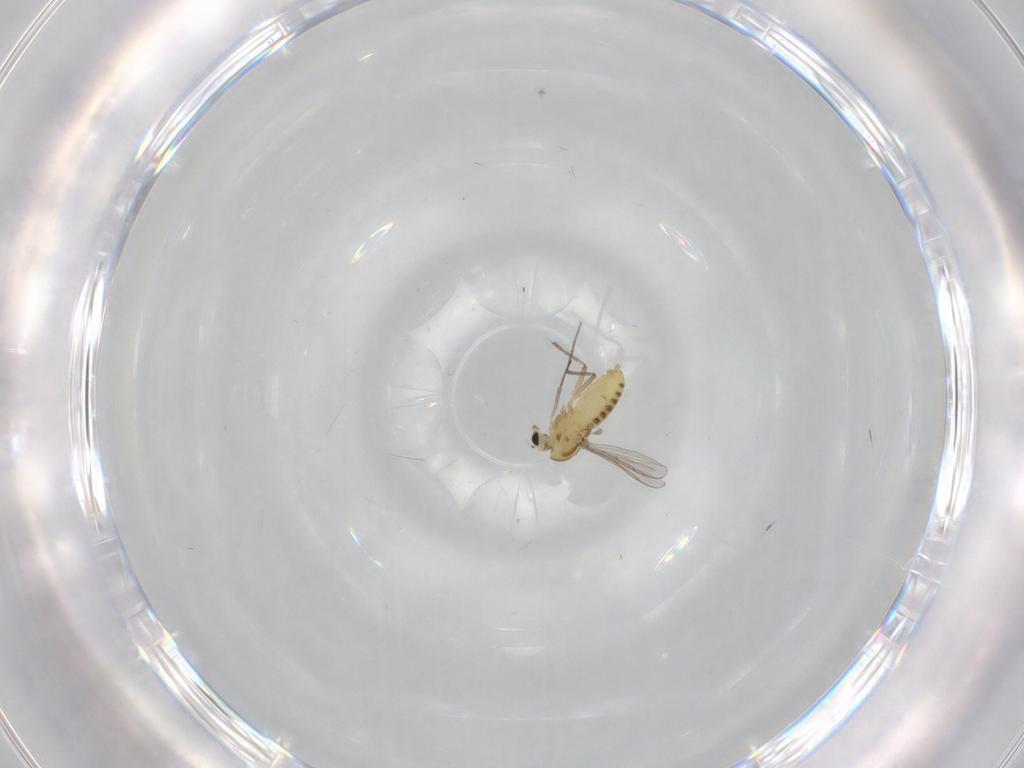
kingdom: Animalia
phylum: Arthropoda
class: Insecta
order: Diptera
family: Chironomidae
